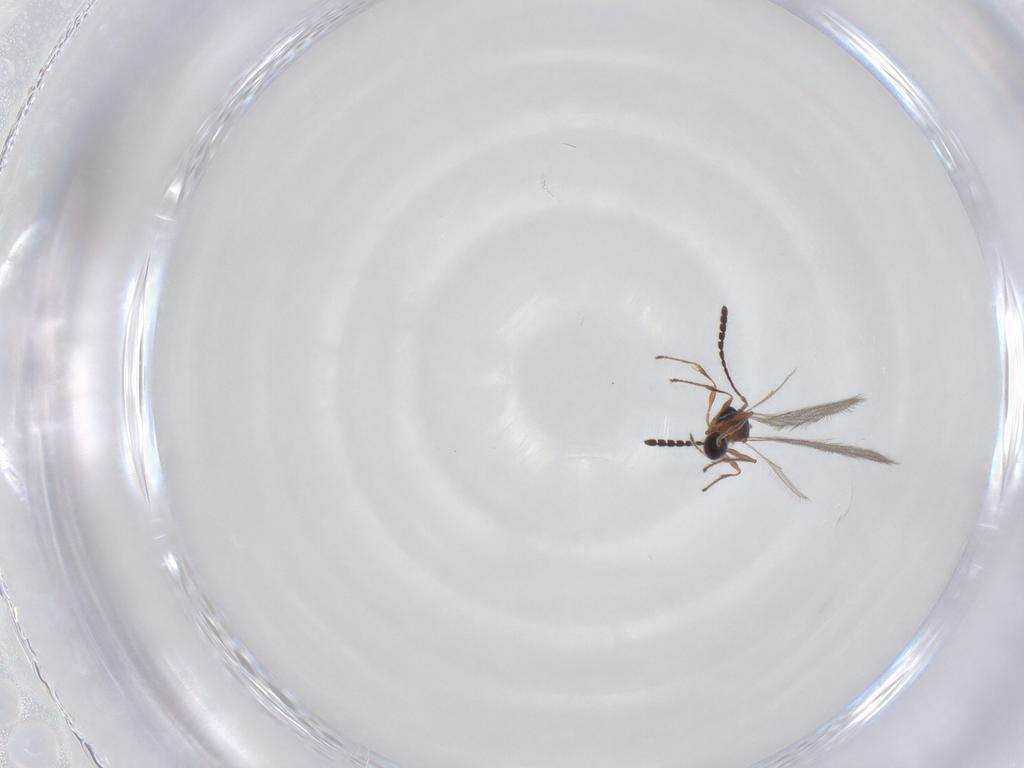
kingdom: Animalia
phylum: Arthropoda
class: Insecta
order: Hymenoptera
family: Diapriidae
